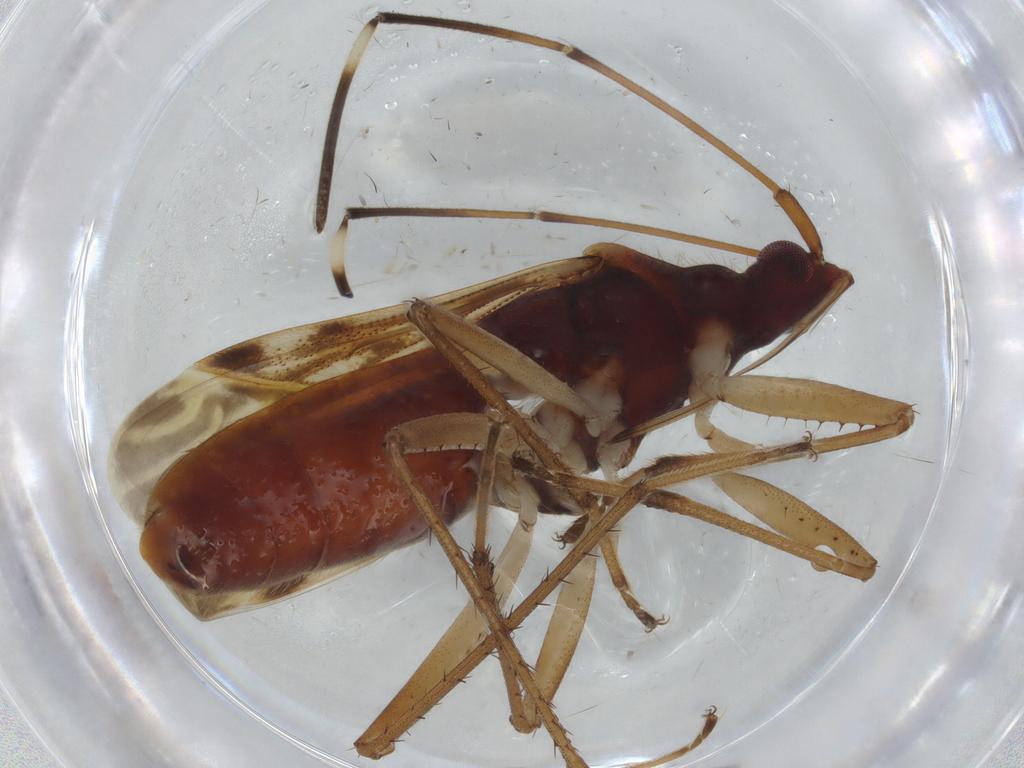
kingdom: Animalia
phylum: Arthropoda
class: Insecta
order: Hemiptera
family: Rhyparochromidae
